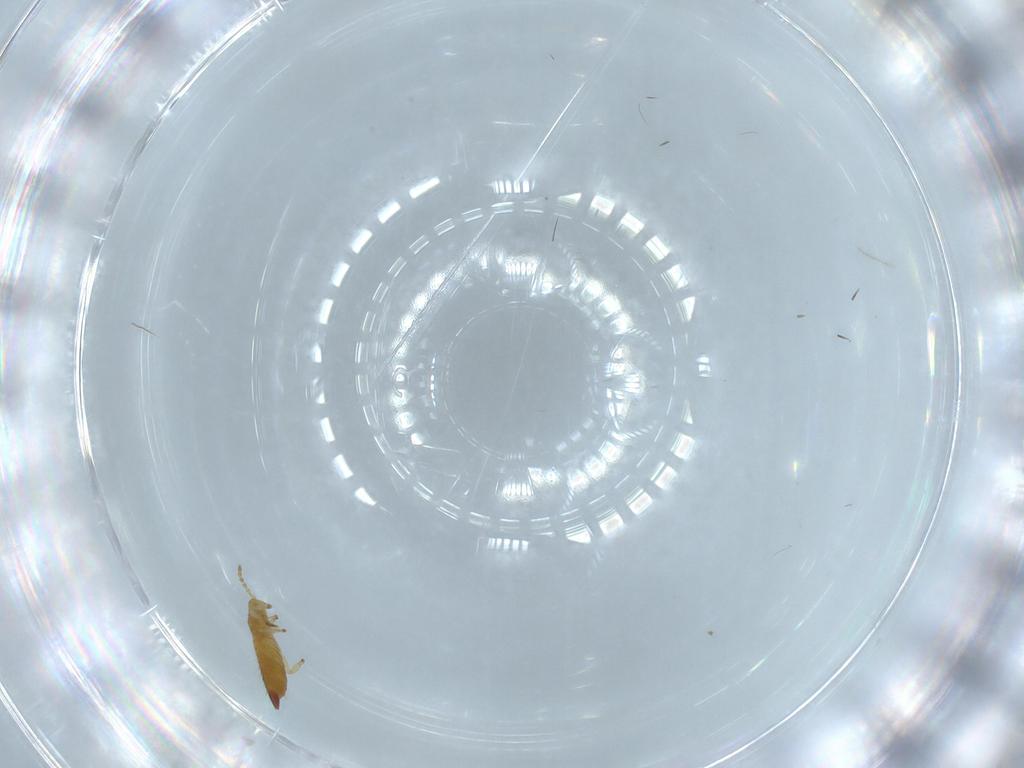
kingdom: Animalia
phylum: Arthropoda
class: Insecta
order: Thysanoptera
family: Phlaeothripidae
